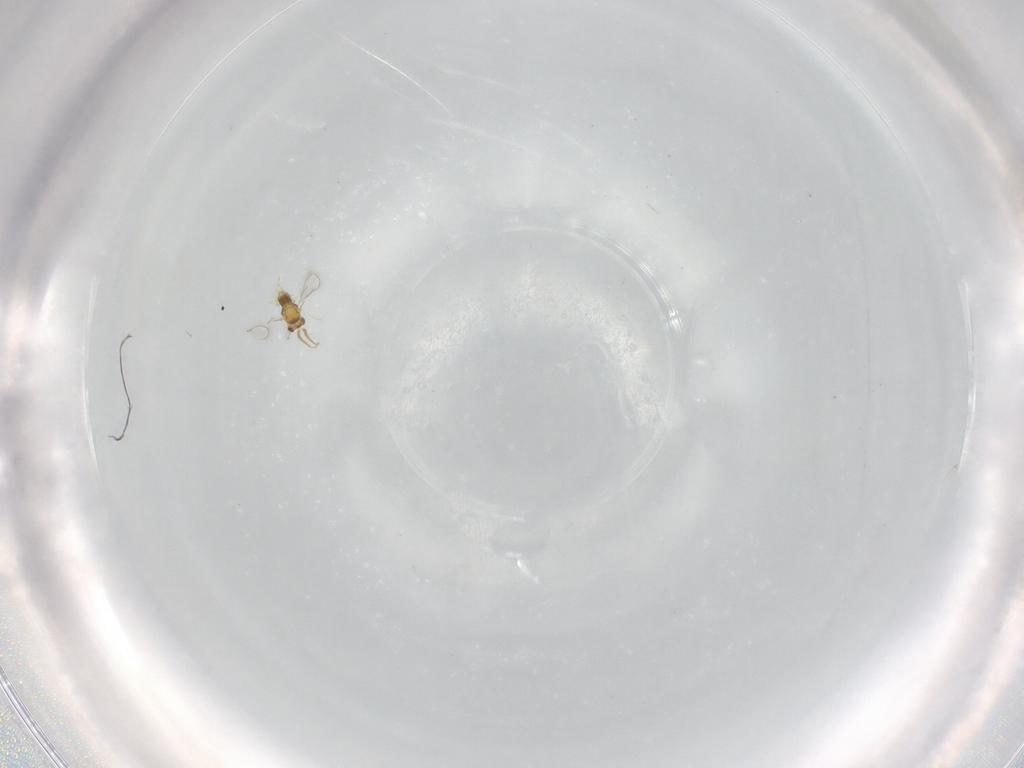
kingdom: Animalia
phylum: Arthropoda
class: Insecta
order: Hymenoptera
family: Aphelinidae
